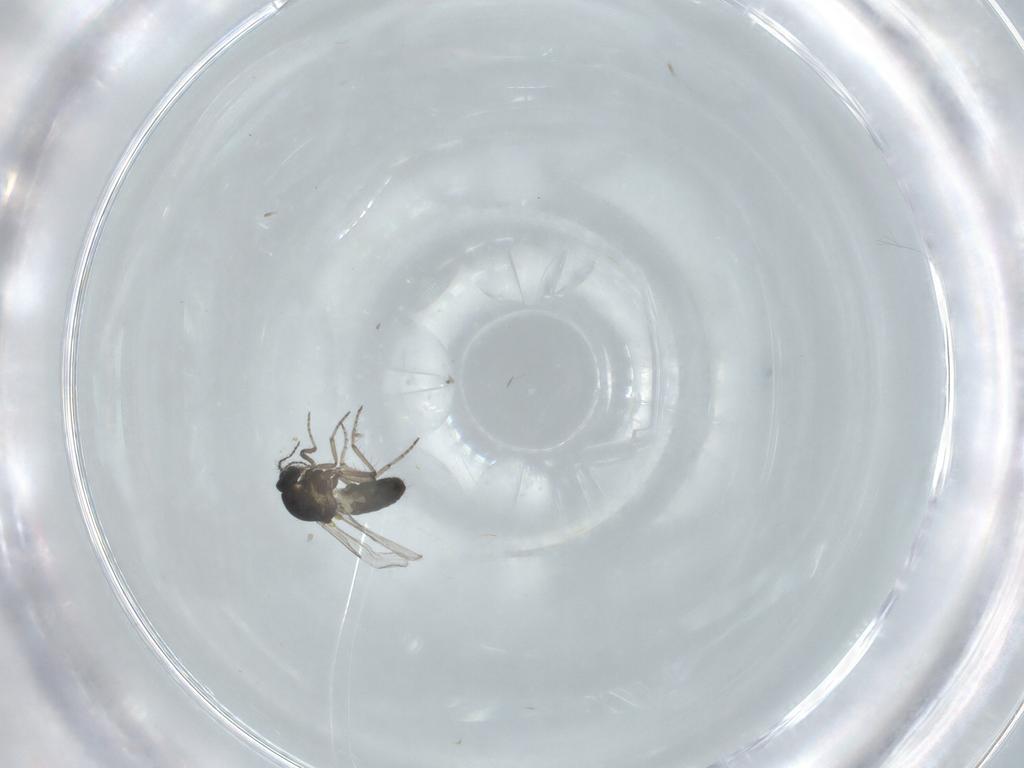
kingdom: Animalia
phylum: Arthropoda
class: Insecta
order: Diptera
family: Ceratopogonidae
